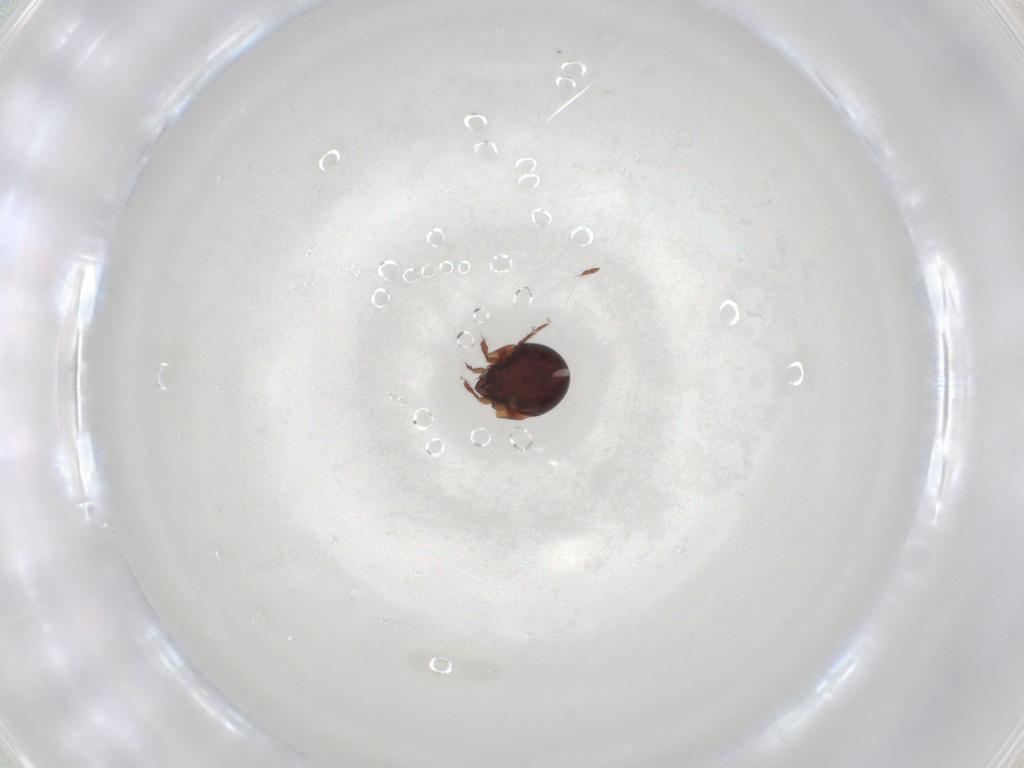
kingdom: Animalia
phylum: Arthropoda
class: Arachnida
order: Sarcoptiformes
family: Humerobatidae
